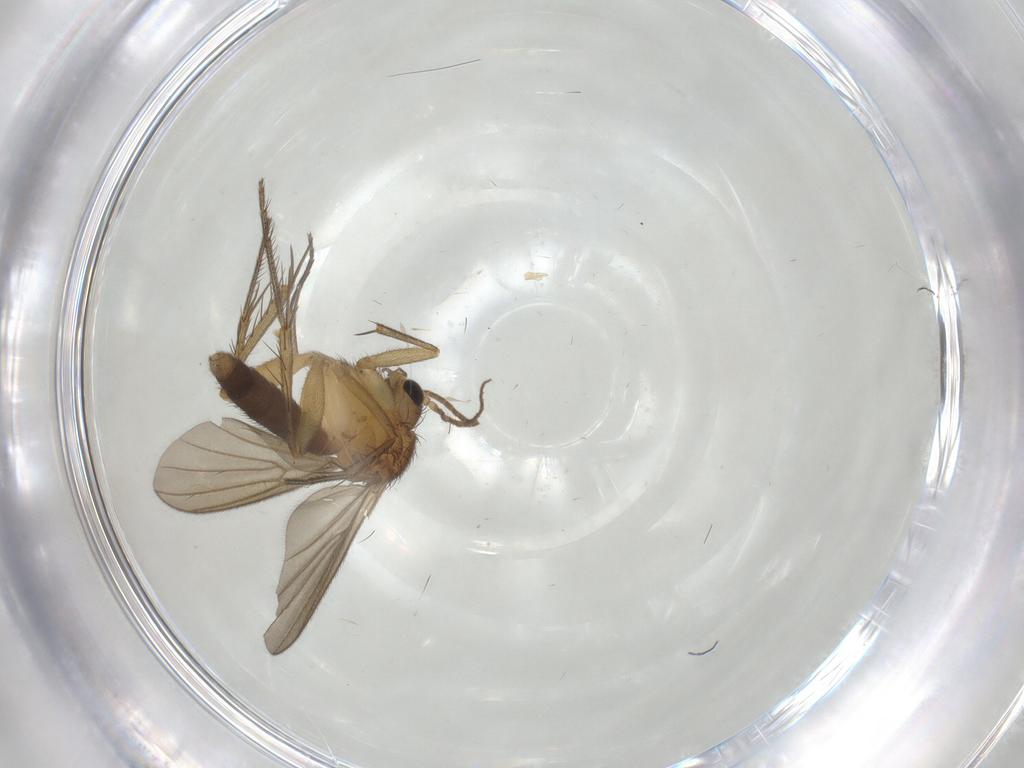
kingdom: Animalia
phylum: Arthropoda
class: Insecta
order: Diptera
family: Mycetophilidae
